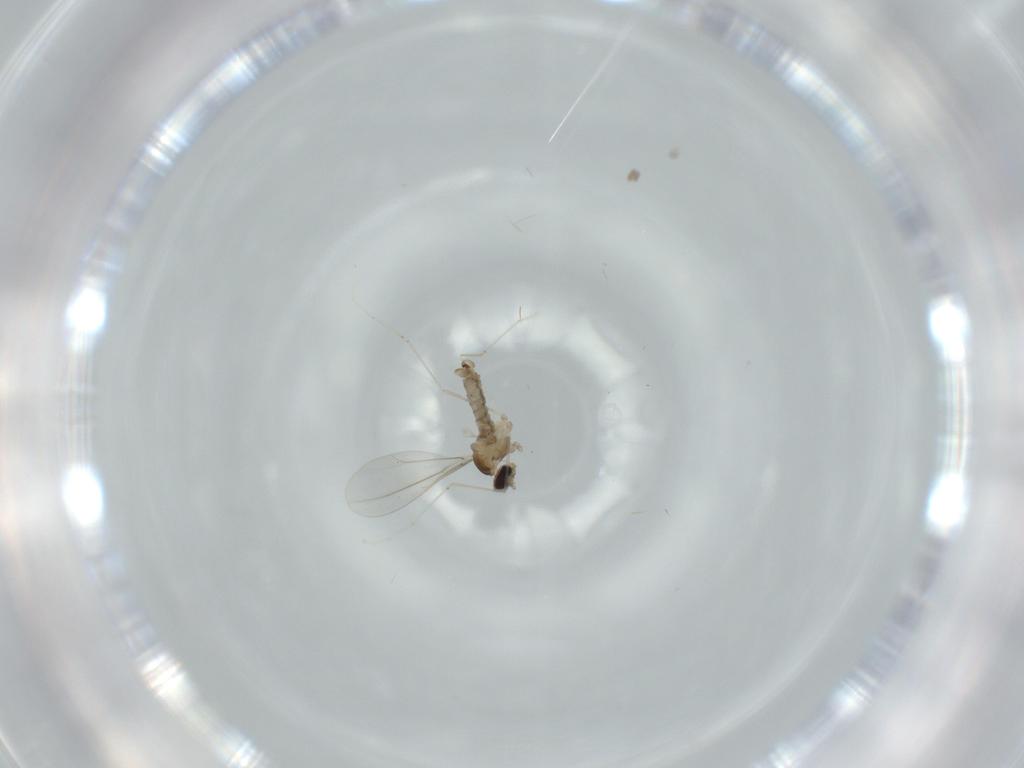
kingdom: Animalia
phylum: Arthropoda
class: Insecta
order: Diptera
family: Cecidomyiidae
